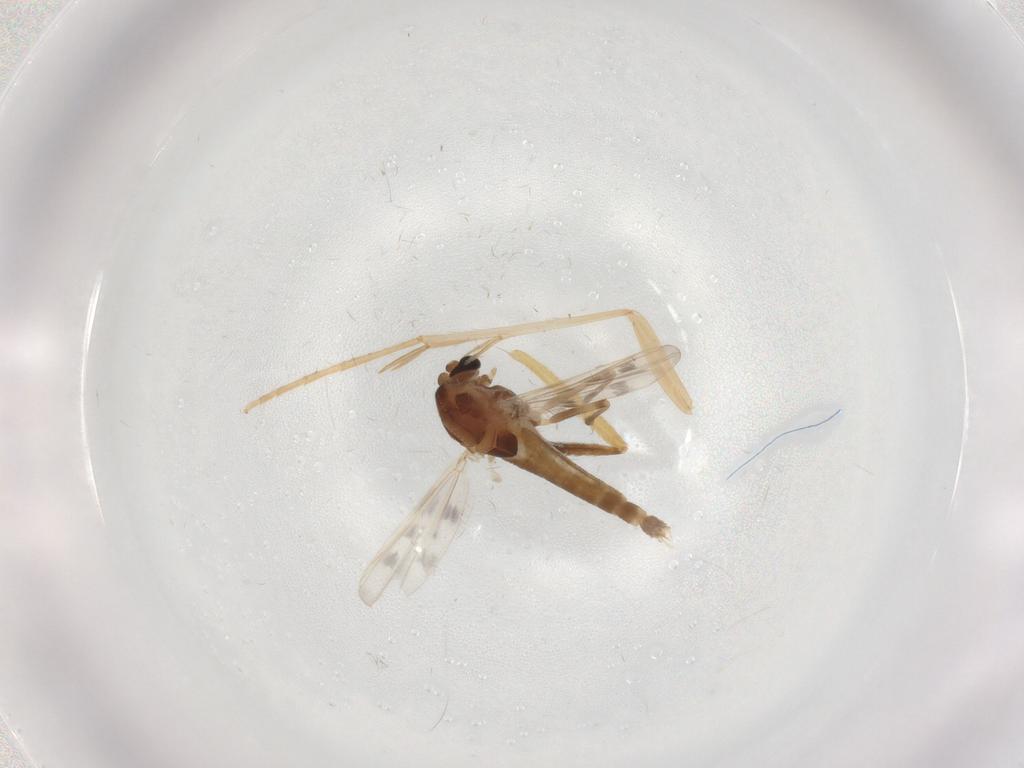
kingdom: Animalia
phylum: Arthropoda
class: Insecta
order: Diptera
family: Chironomidae
